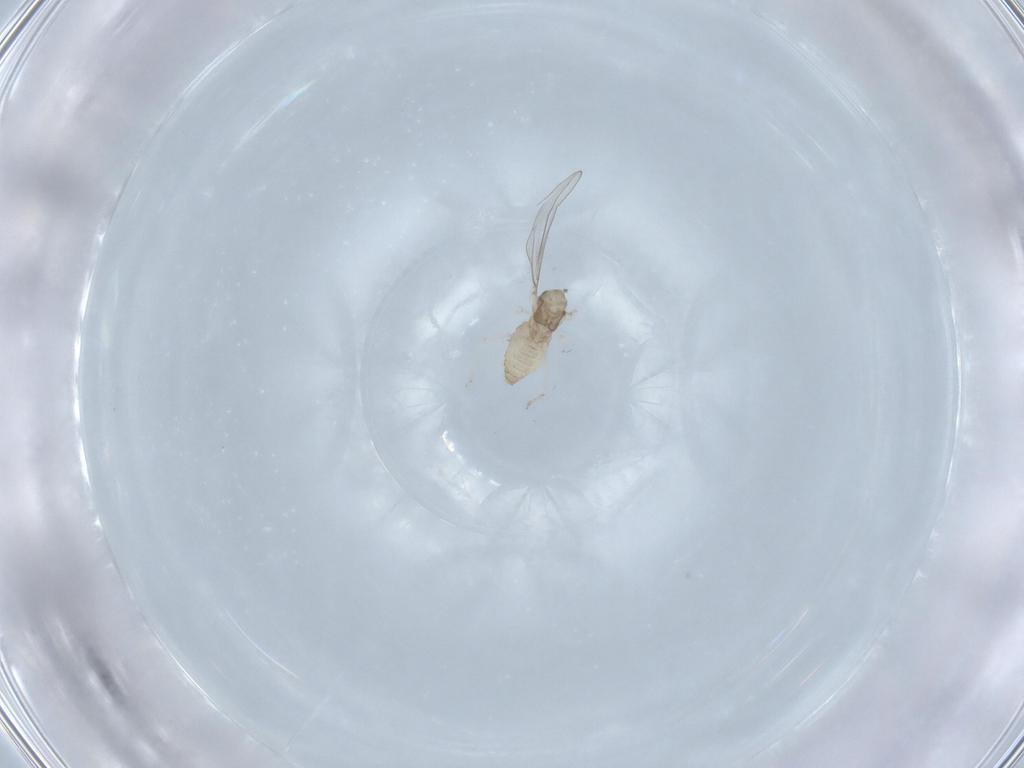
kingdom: Animalia
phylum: Arthropoda
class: Insecta
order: Diptera
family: Cecidomyiidae
